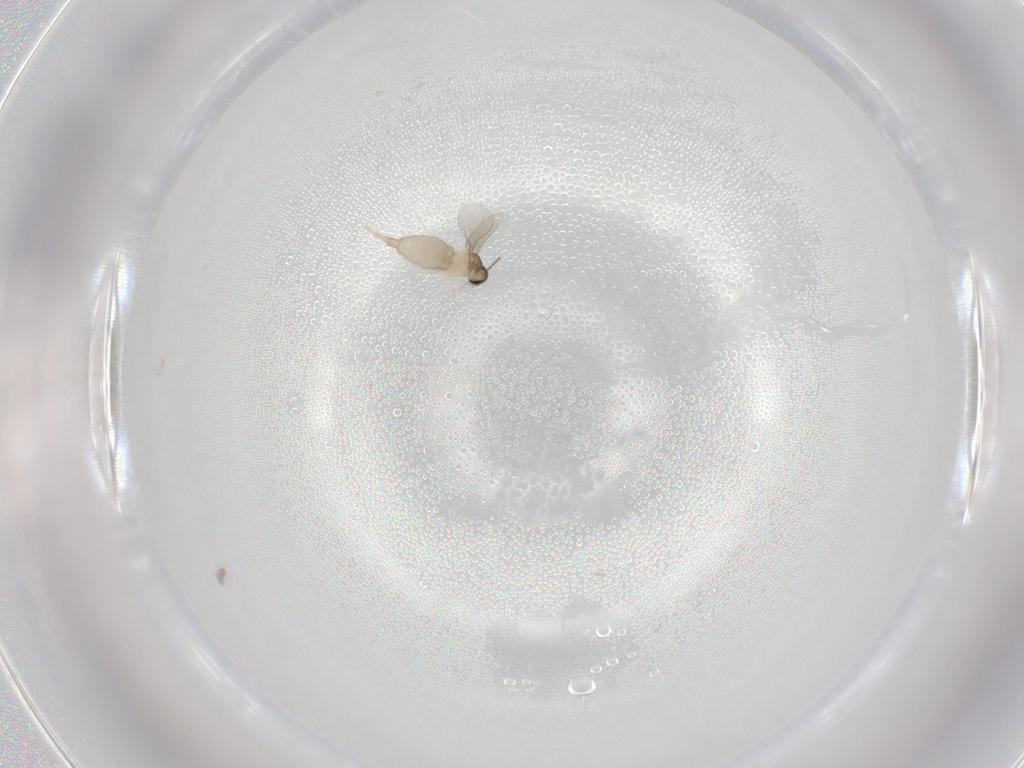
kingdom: Animalia
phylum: Arthropoda
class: Insecta
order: Diptera
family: Cecidomyiidae
